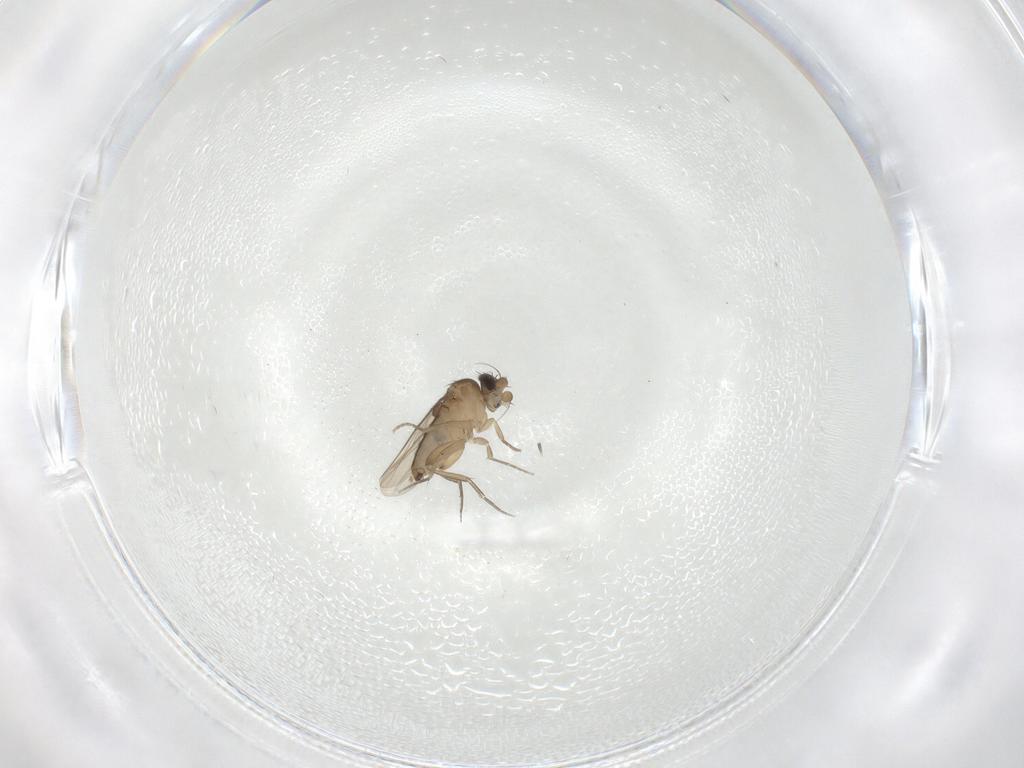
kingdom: Animalia
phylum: Arthropoda
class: Insecta
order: Diptera
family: Phoridae
